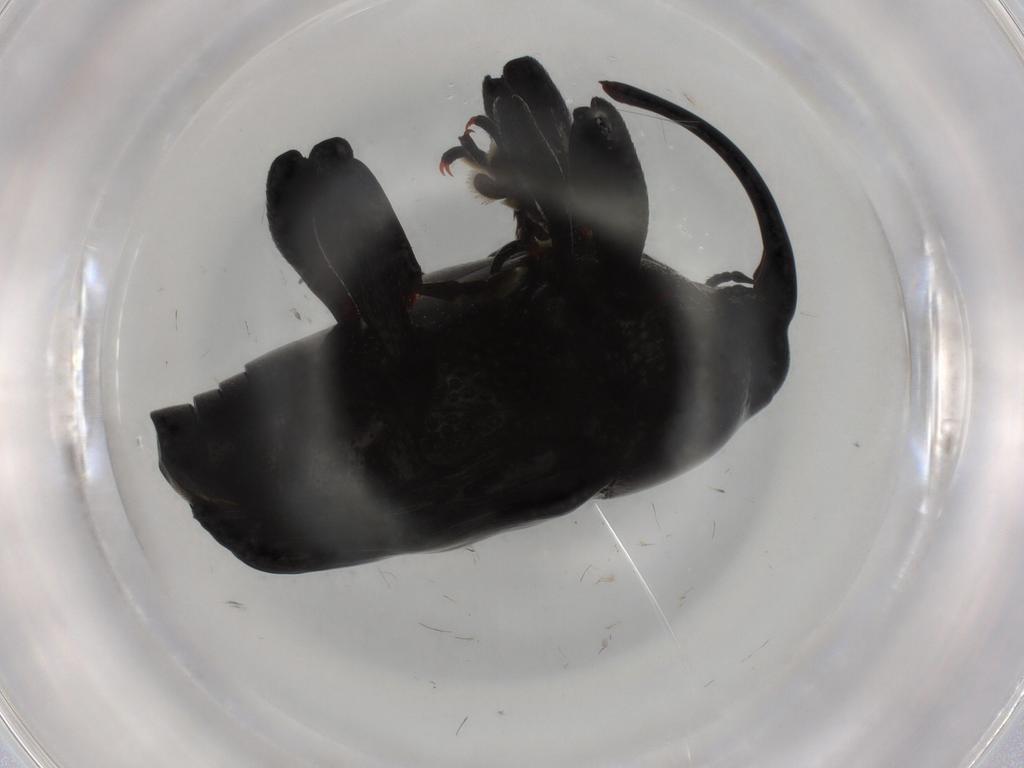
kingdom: Animalia
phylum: Arthropoda
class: Insecta
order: Coleoptera
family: Curculionidae
